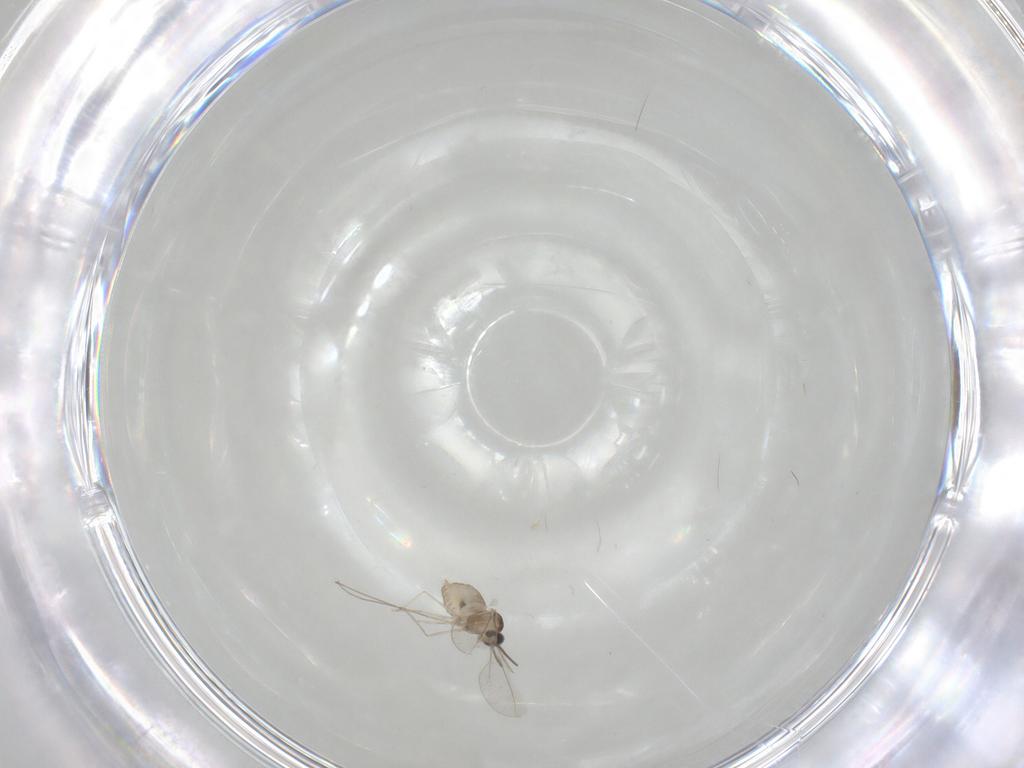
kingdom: Animalia
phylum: Arthropoda
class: Insecta
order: Diptera
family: Cecidomyiidae
